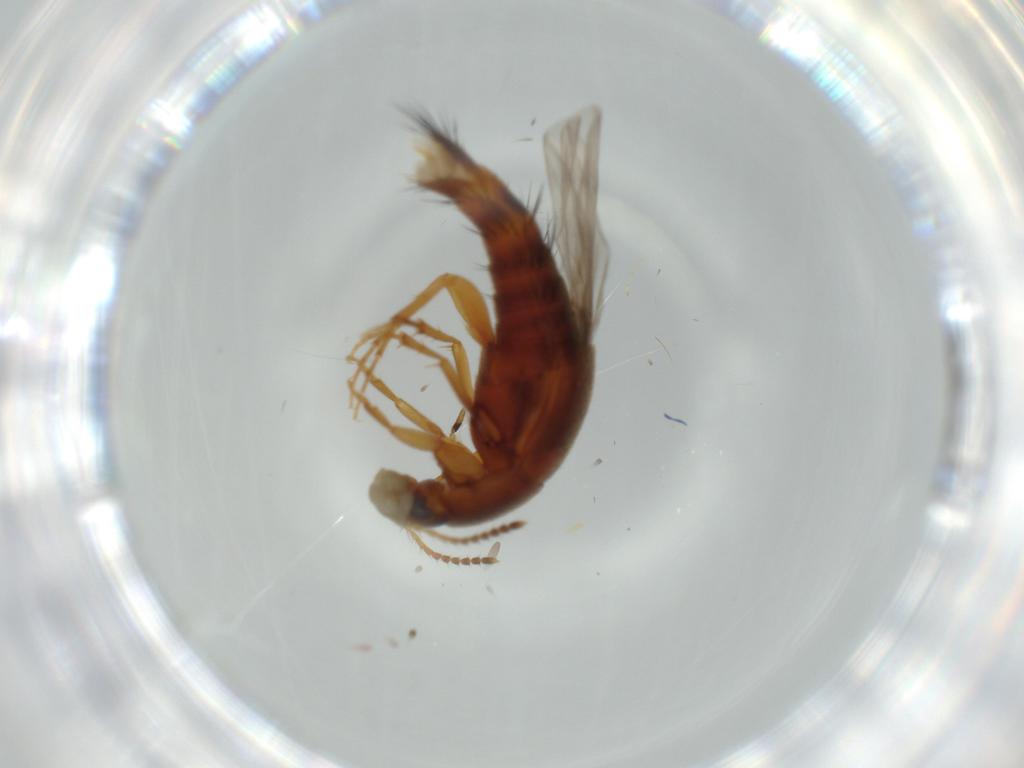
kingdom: Animalia
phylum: Arthropoda
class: Insecta
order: Coleoptera
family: Staphylinidae
